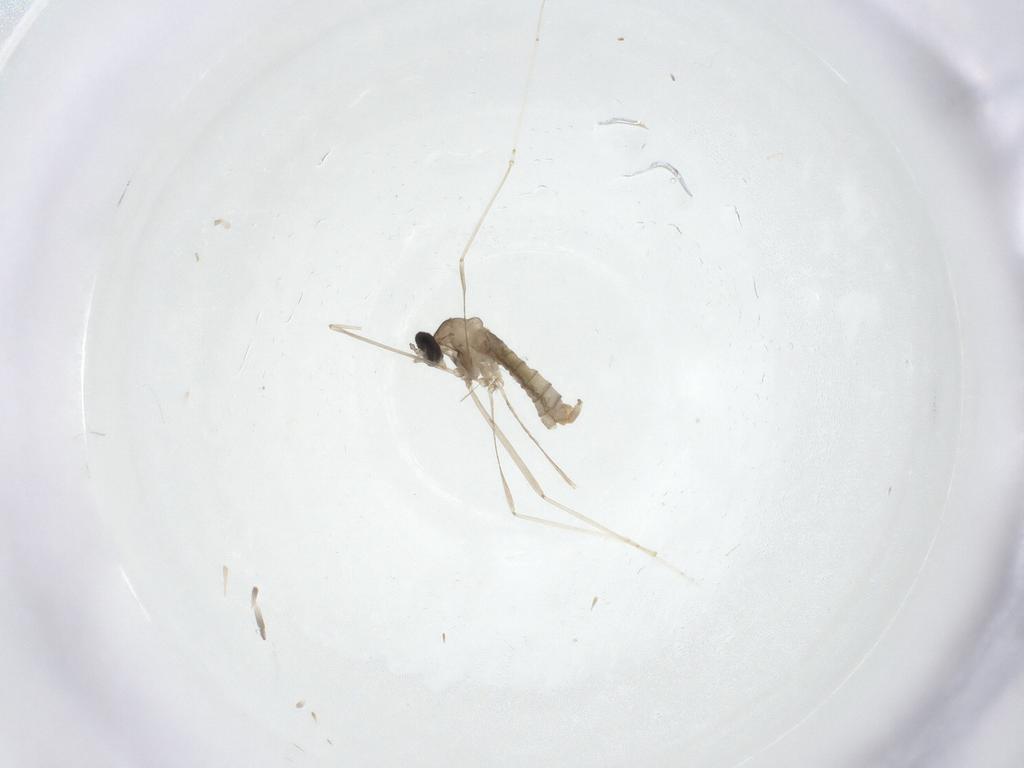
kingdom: Animalia
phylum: Arthropoda
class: Insecta
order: Diptera
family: Cecidomyiidae
